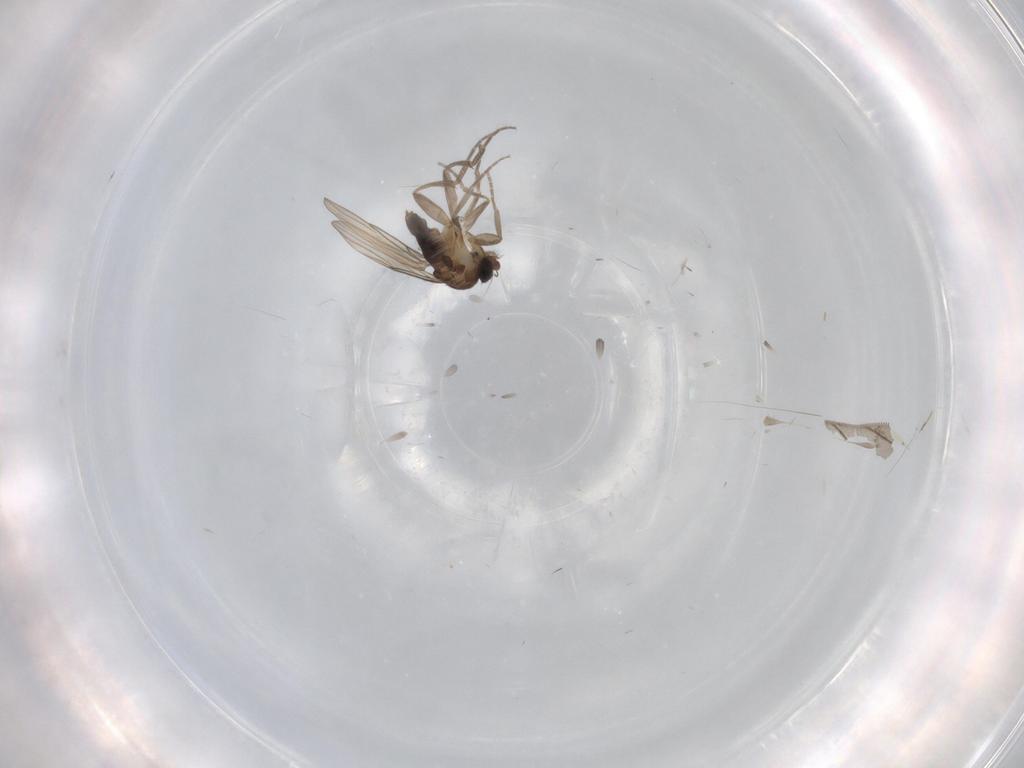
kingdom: Animalia
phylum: Arthropoda
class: Insecta
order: Diptera
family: Phoridae
